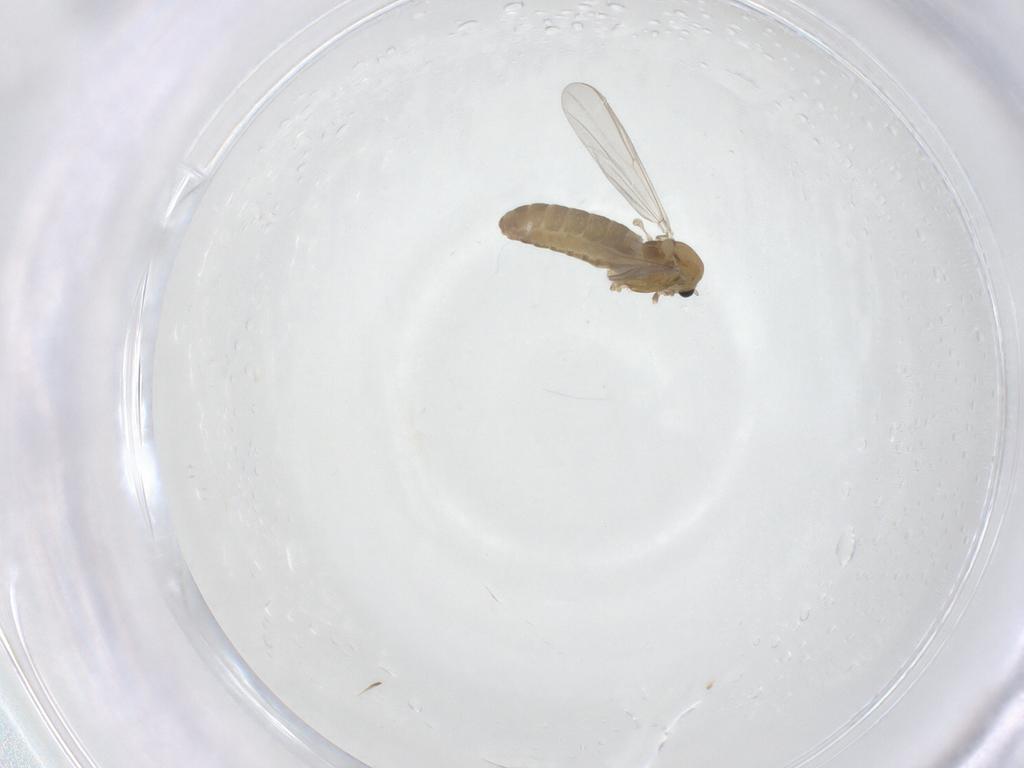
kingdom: Animalia
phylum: Arthropoda
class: Insecta
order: Diptera
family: Chironomidae
